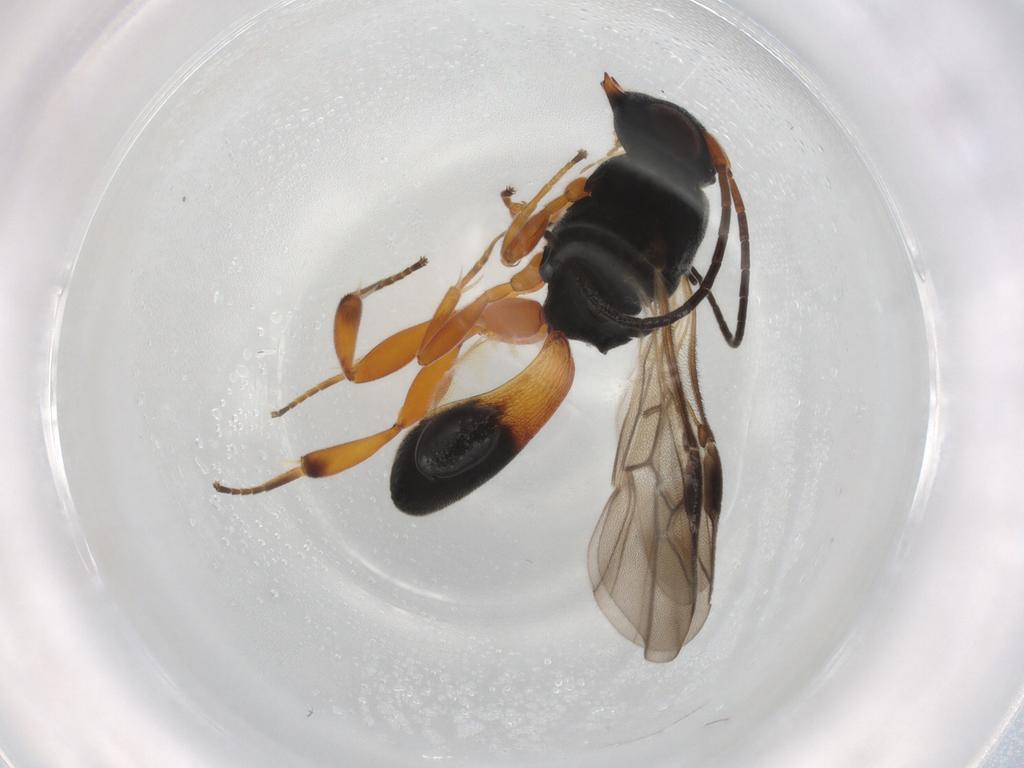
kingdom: Animalia
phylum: Arthropoda
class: Insecta
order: Hymenoptera
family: Braconidae
